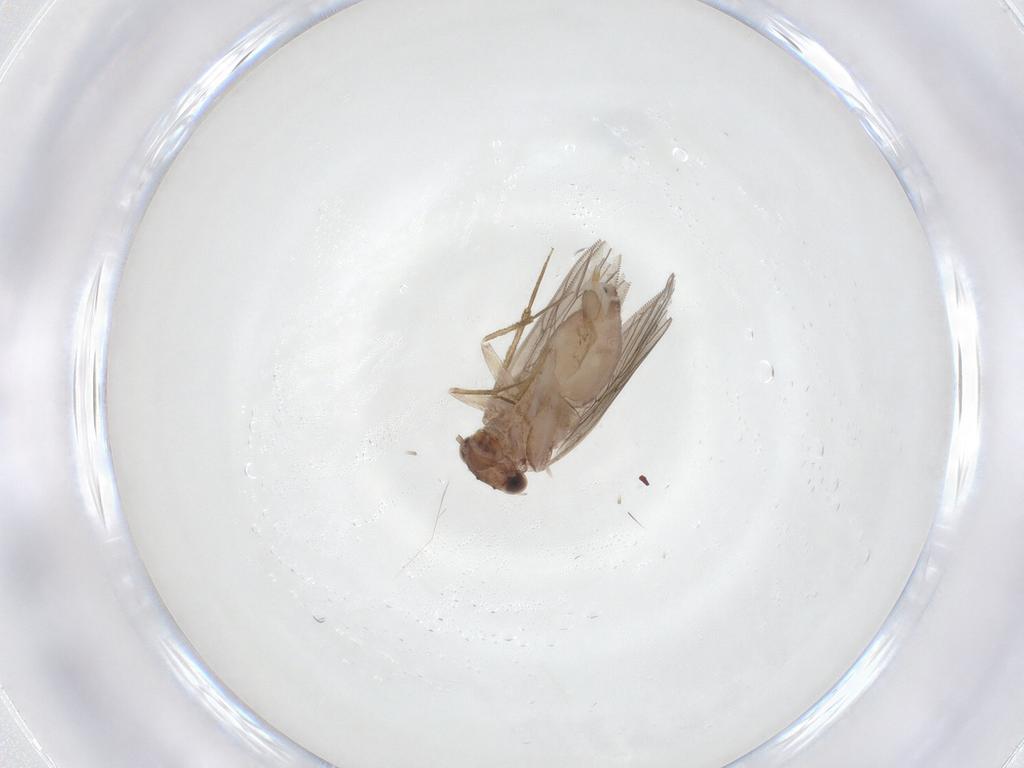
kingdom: Animalia
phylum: Arthropoda
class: Insecta
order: Psocodea
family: Lepidopsocidae
